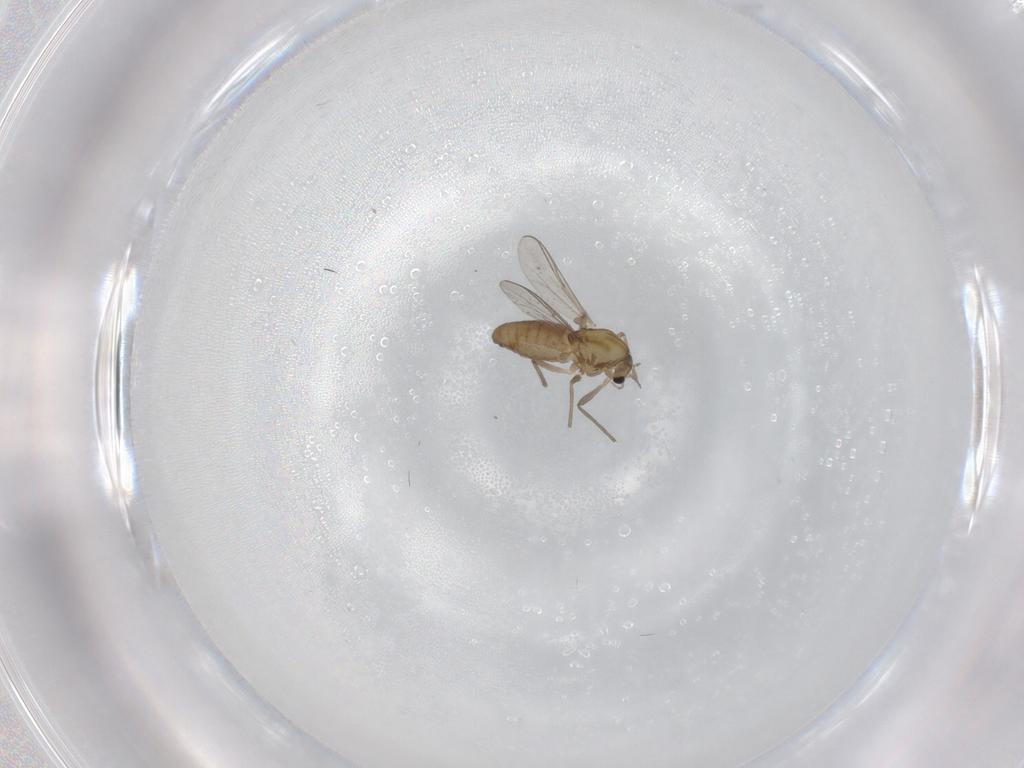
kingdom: Animalia
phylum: Arthropoda
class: Insecta
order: Diptera
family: Chironomidae
